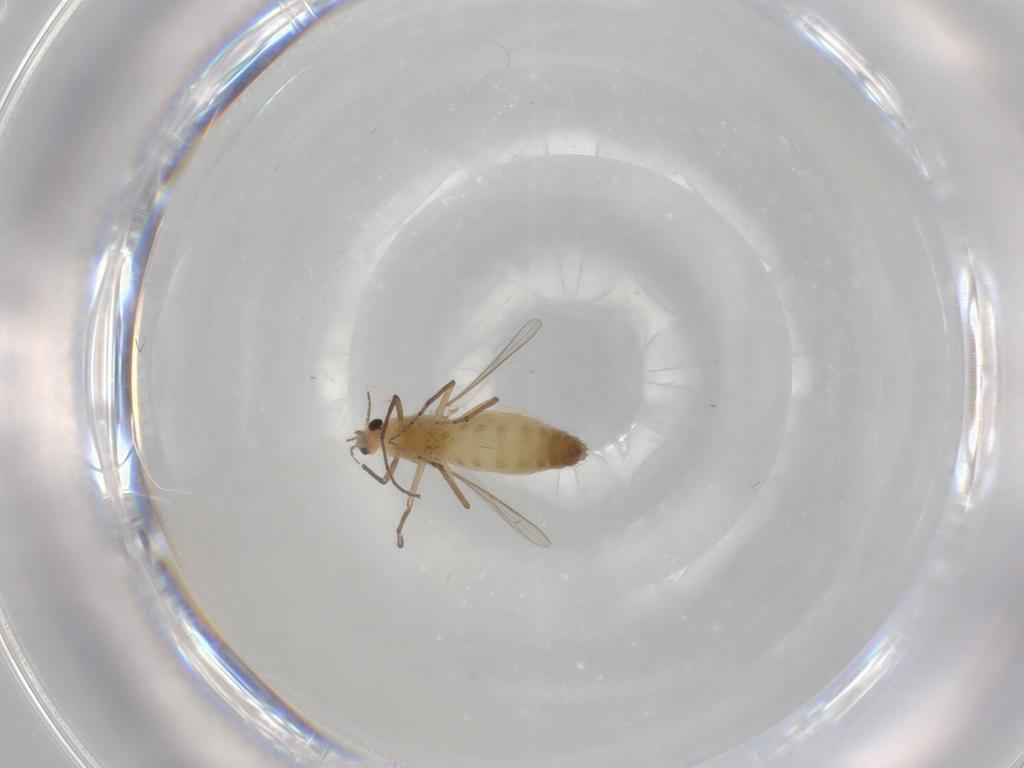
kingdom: Animalia
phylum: Arthropoda
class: Insecta
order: Diptera
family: Chironomidae
